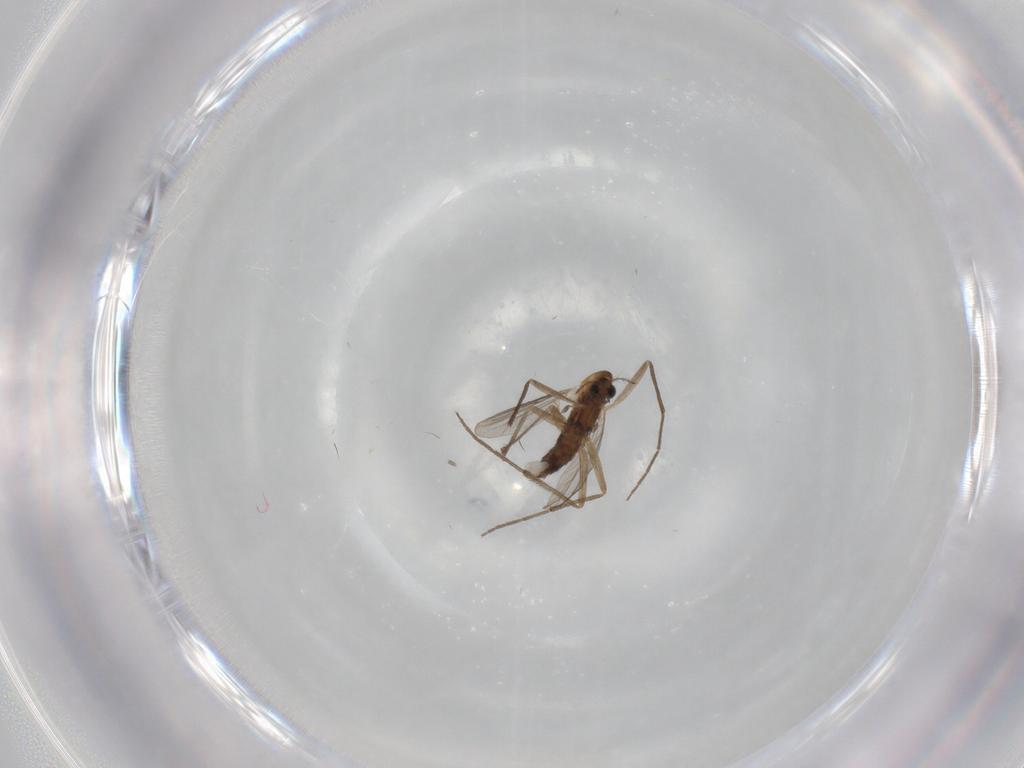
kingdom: Animalia
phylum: Arthropoda
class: Insecta
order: Diptera
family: Chironomidae
